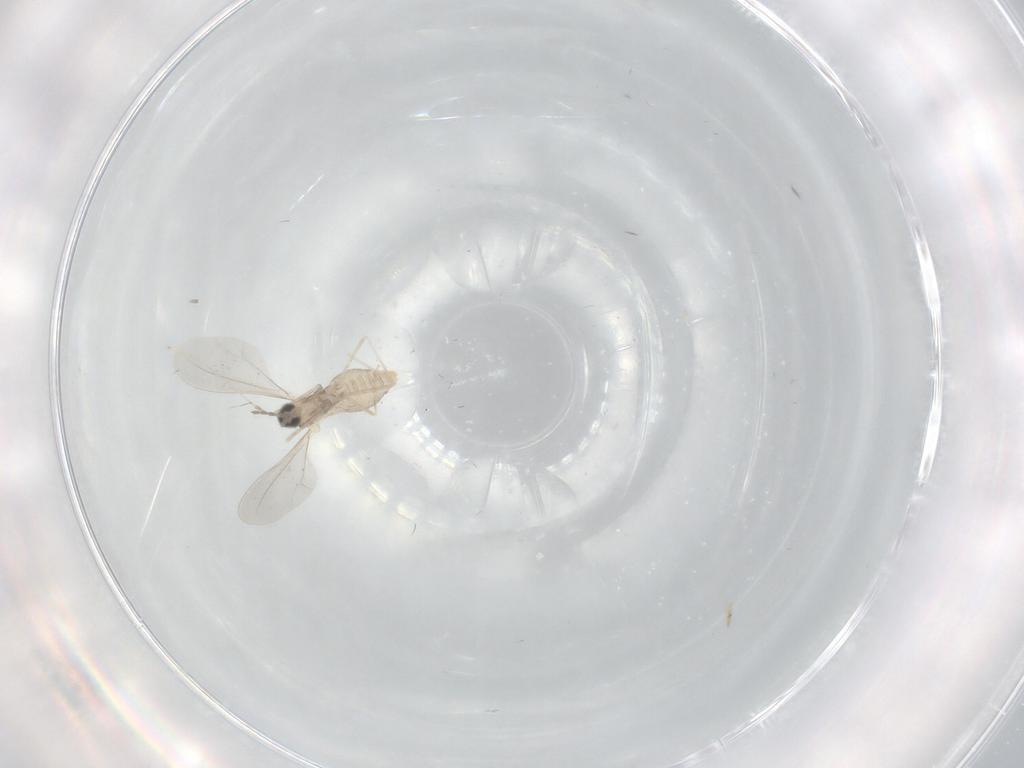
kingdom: Animalia
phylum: Arthropoda
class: Insecta
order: Diptera
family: Cecidomyiidae
